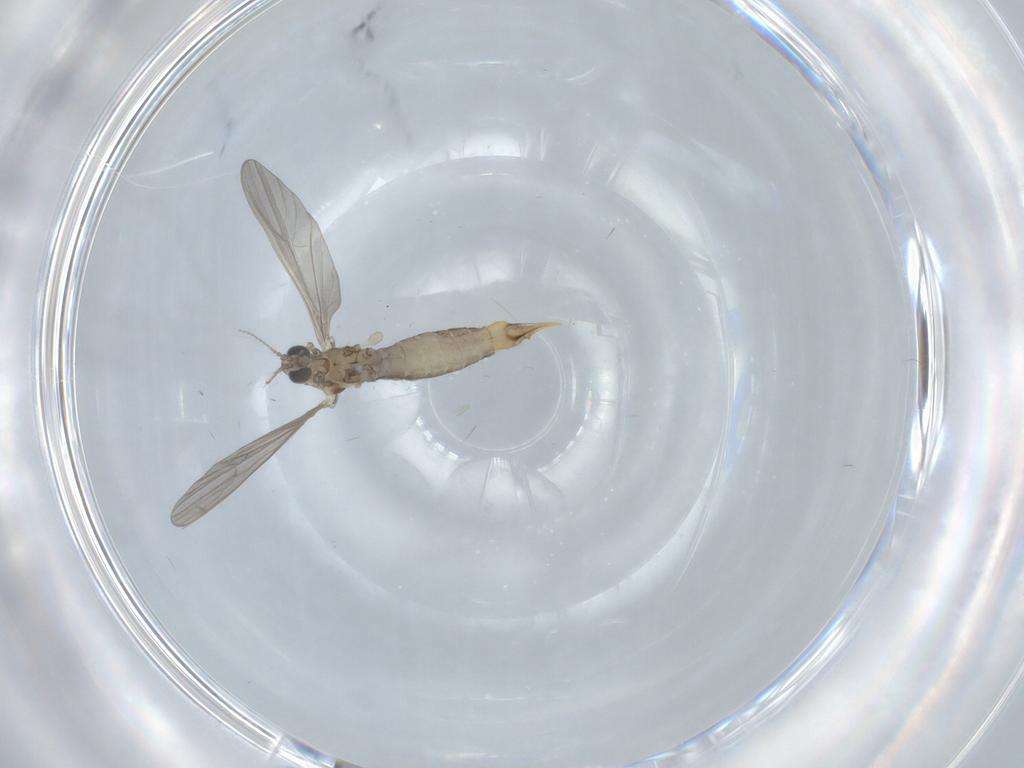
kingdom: Animalia
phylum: Arthropoda
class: Insecta
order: Diptera
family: Limoniidae
